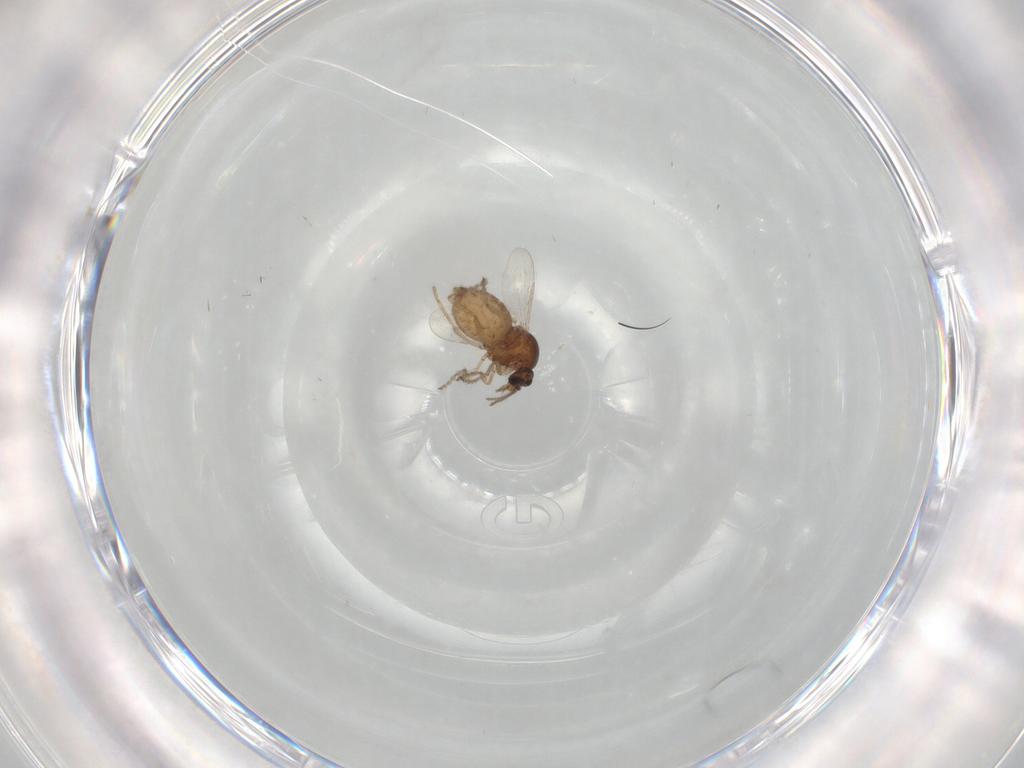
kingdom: Animalia
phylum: Arthropoda
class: Insecta
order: Diptera
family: Ceratopogonidae
